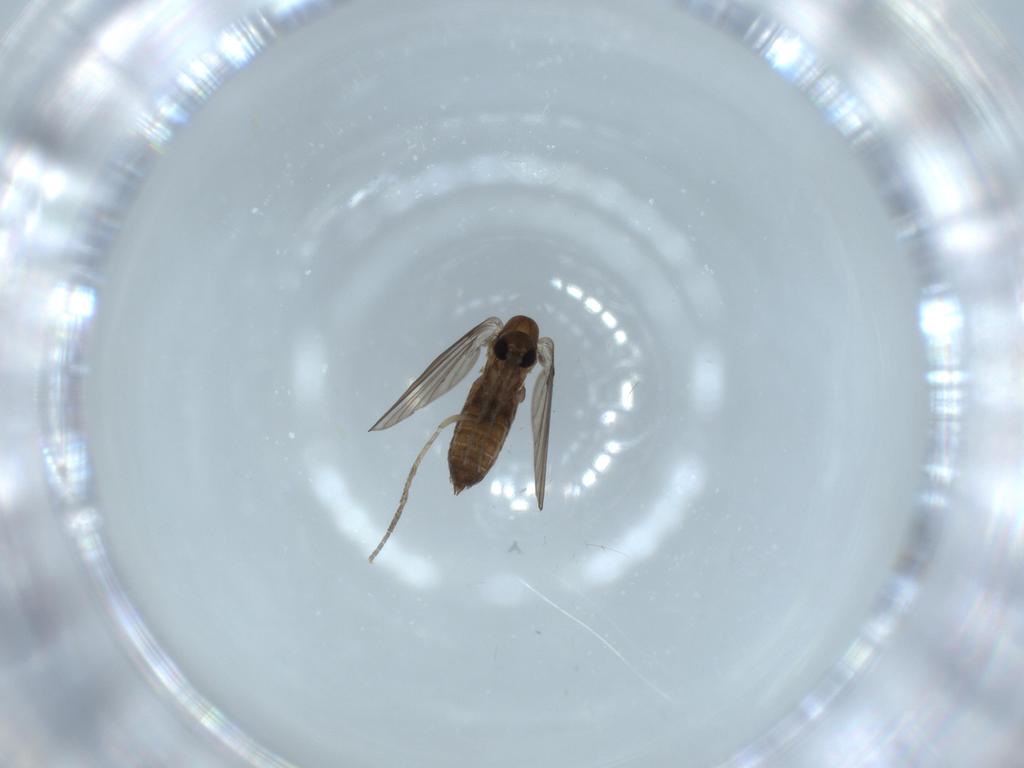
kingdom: Animalia
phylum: Arthropoda
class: Insecta
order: Diptera
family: Psychodidae
